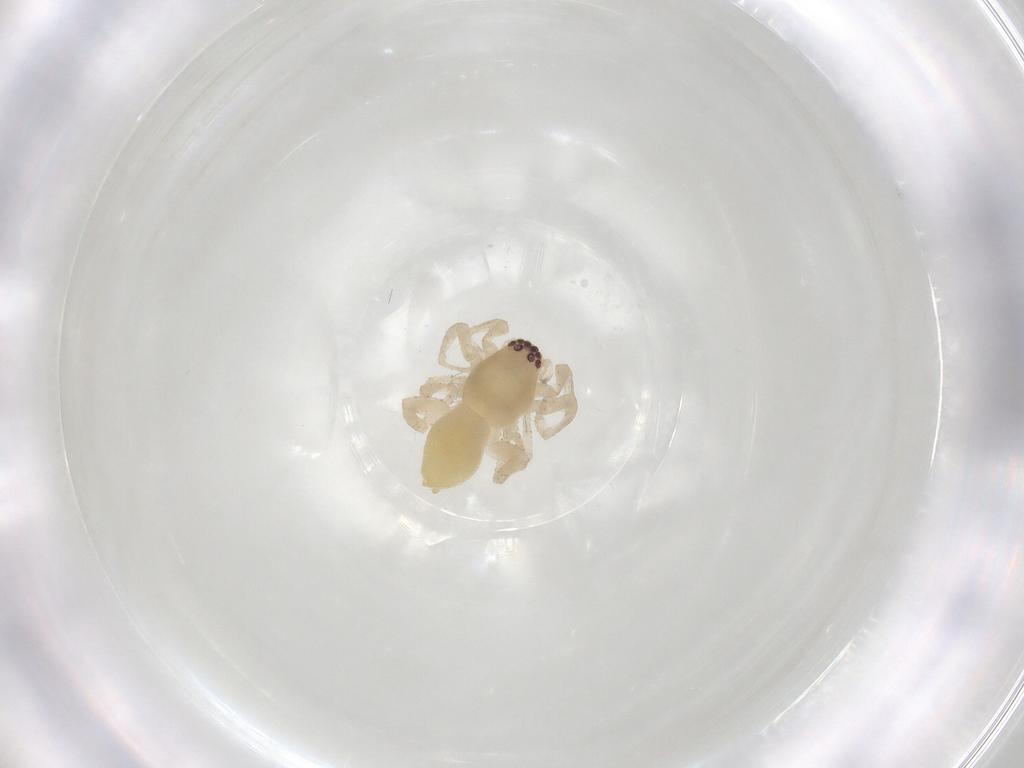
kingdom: Animalia
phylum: Arthropoda
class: Arachnida
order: Araneae
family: Clubionidae
